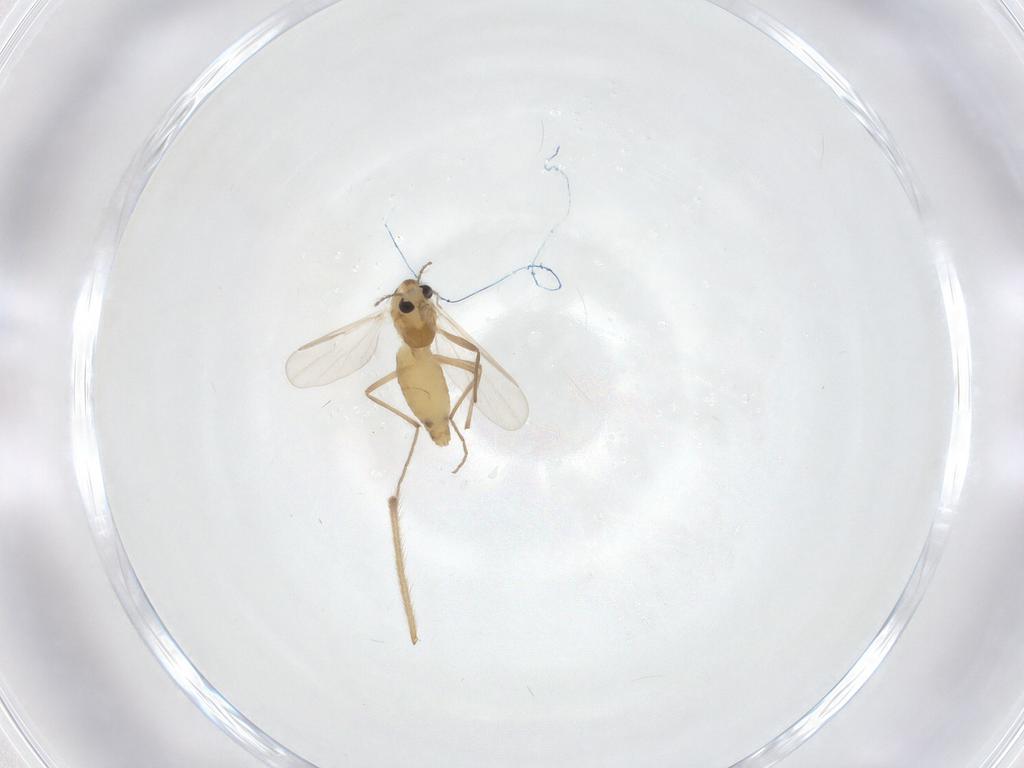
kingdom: Animalia
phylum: Arthropoda
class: Insecta
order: Diptera
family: Chironomidae
